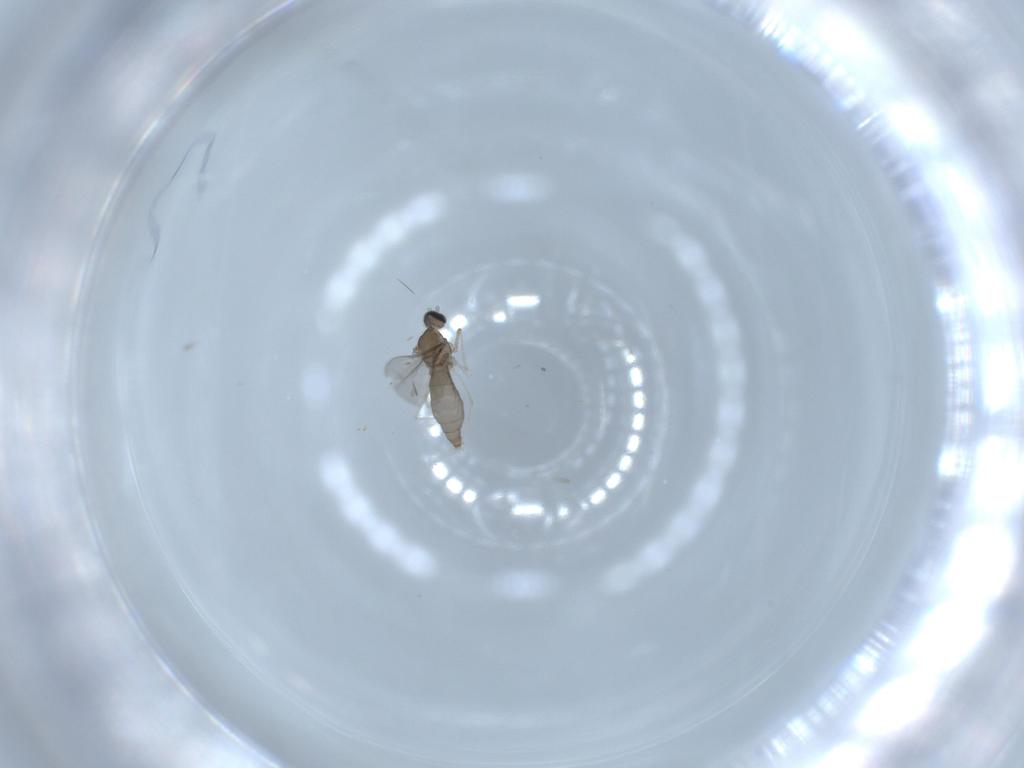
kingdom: Animalia
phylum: Arthropoda
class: Insecta
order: Diptera
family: Cecidomyiidae
